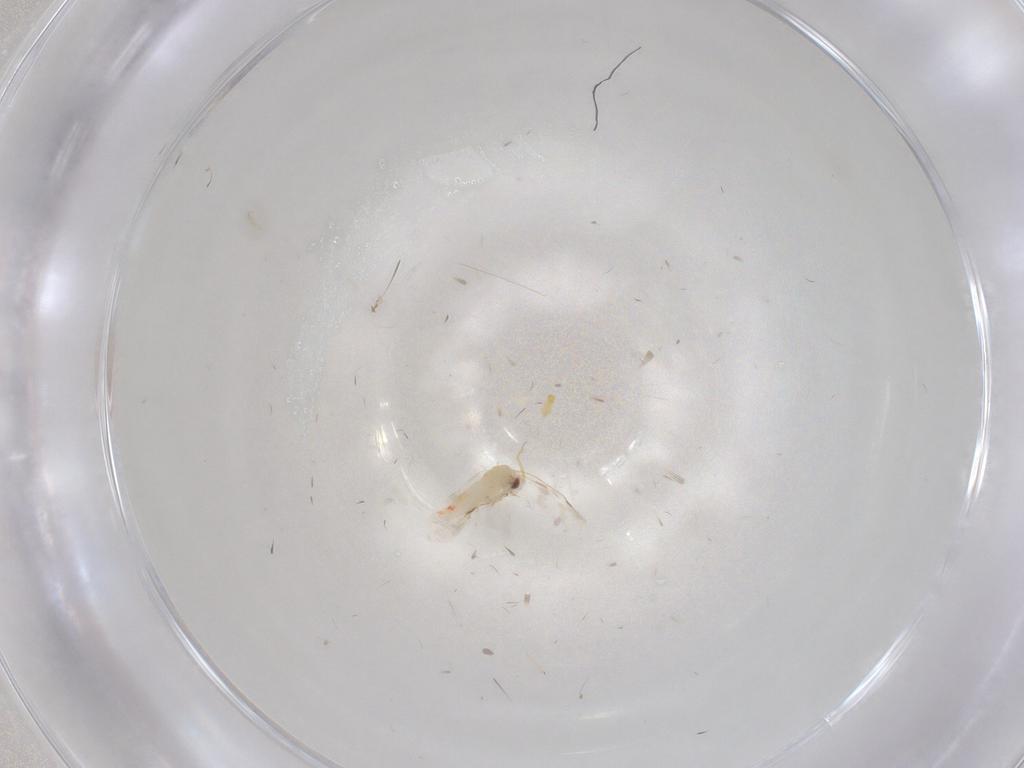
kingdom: Animalia
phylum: Arthropoda
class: Insecta
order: Hemiptera
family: Aleyrodidae
